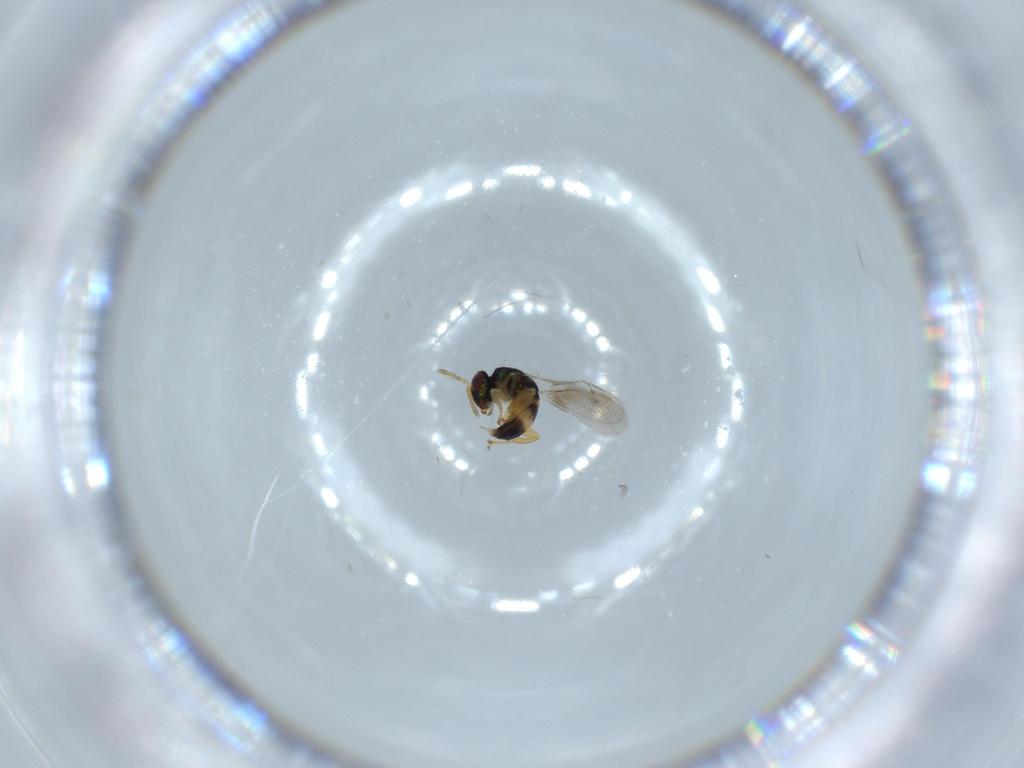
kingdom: Animalia
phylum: Arthropoda
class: Insecta
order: Hymenoptera
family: Torymidae
